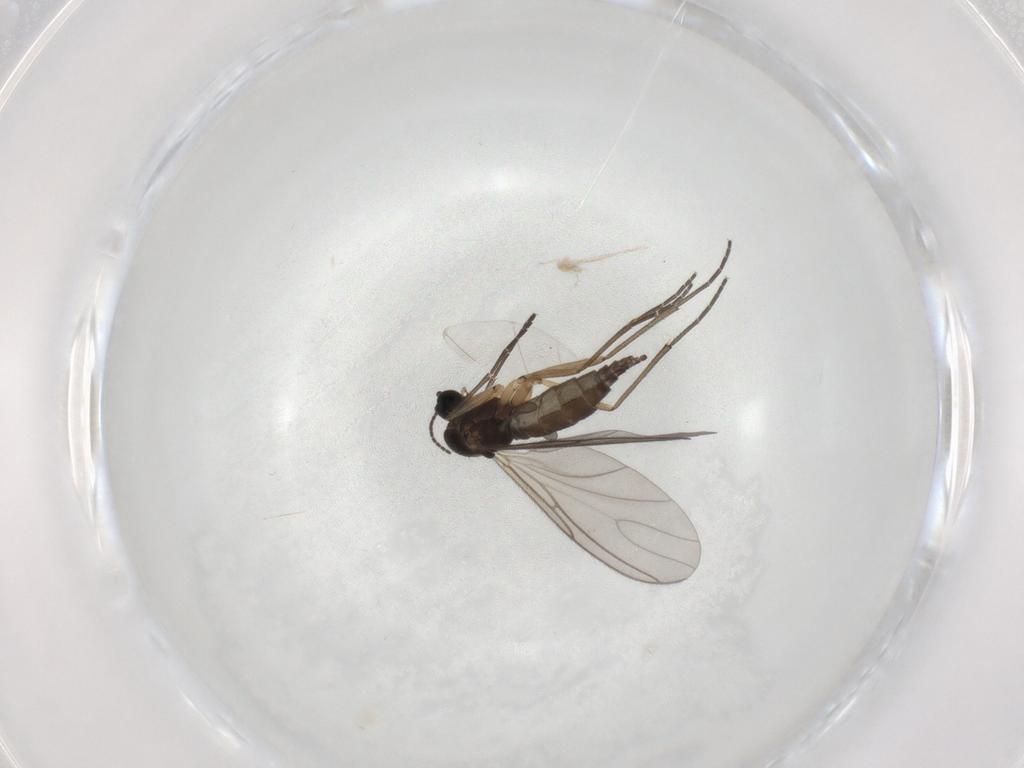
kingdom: Animalia
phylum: Arthropoda
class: Insecta
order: Diptera
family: Sciaridae
